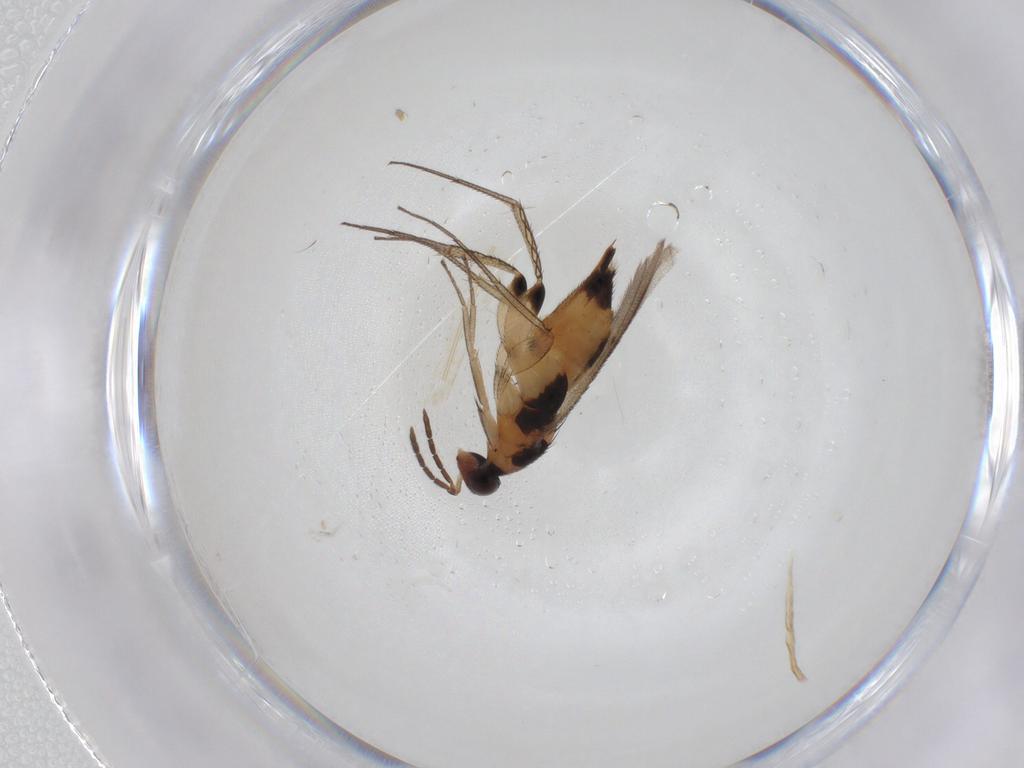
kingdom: Animalia
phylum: Arthropoda
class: Insecta
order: Hymenoptera
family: Eulophidae
